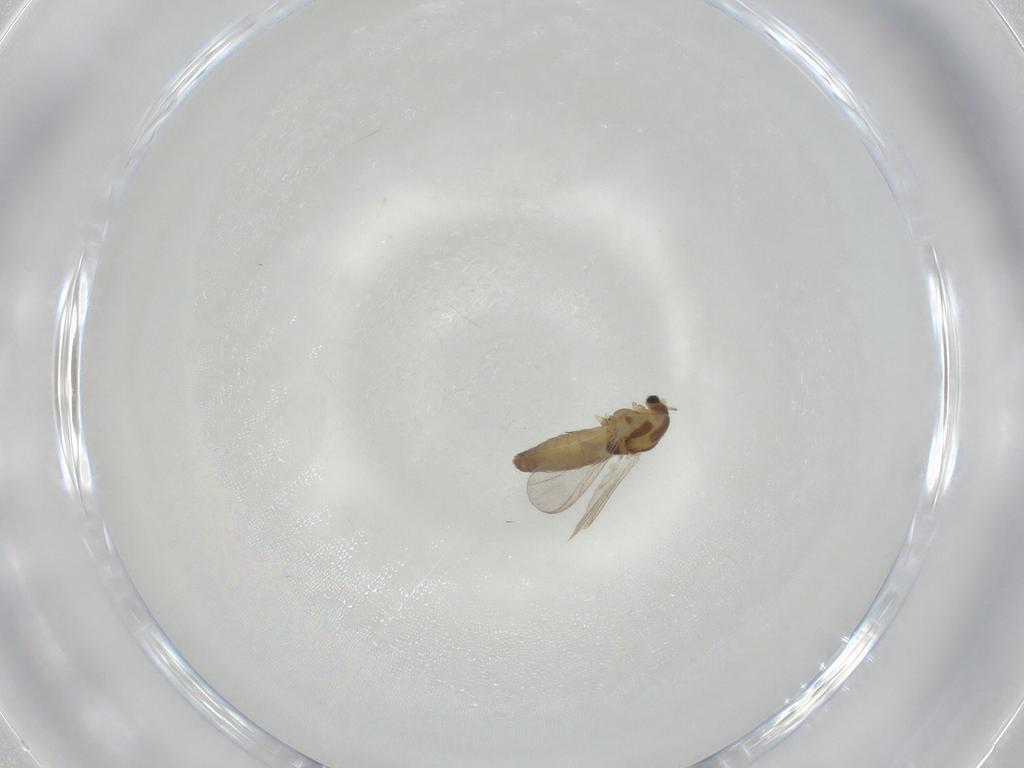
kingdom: Animalia
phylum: Arthropoda
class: Insecta
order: Diptera
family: Chironomidae
